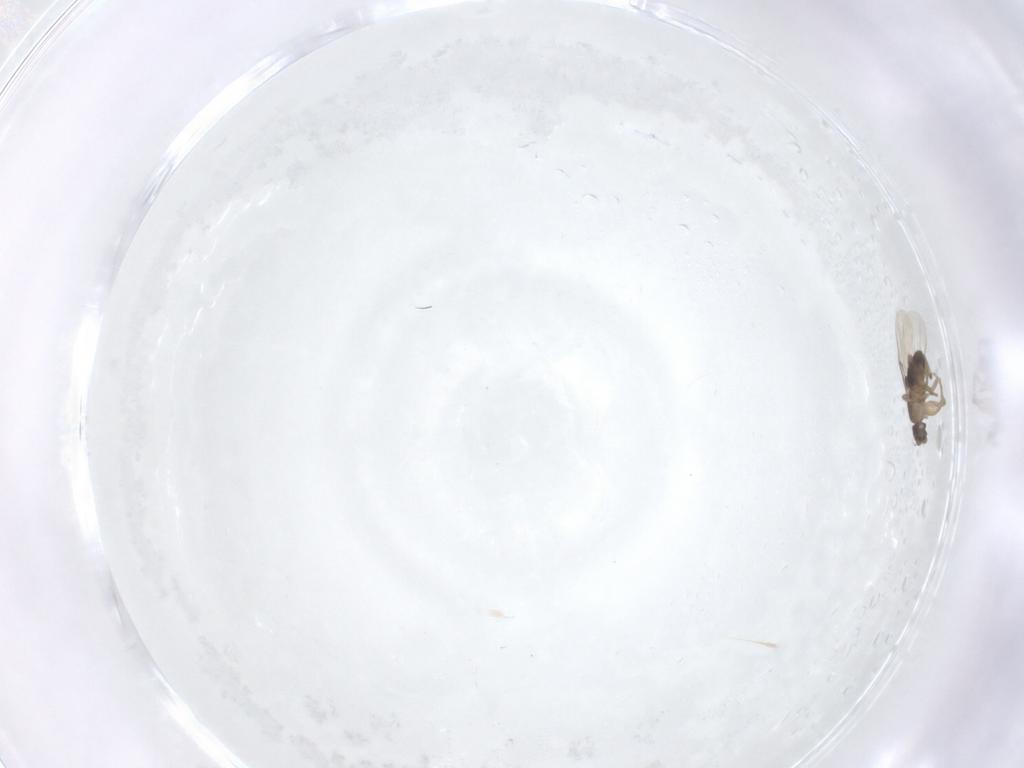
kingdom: Animalia
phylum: Arthropoda
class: Insecta
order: Diptera
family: Phoridae
